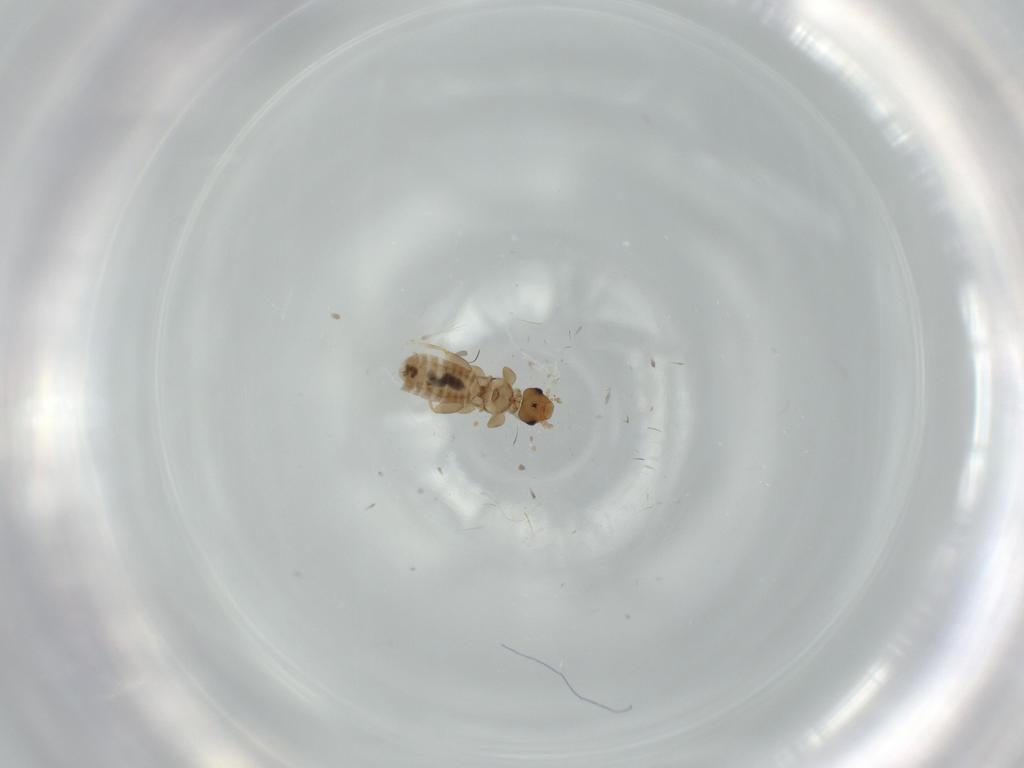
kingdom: Animalia
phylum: Arthropoda
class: Insecta
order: Psocodea
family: Liposcelididae
